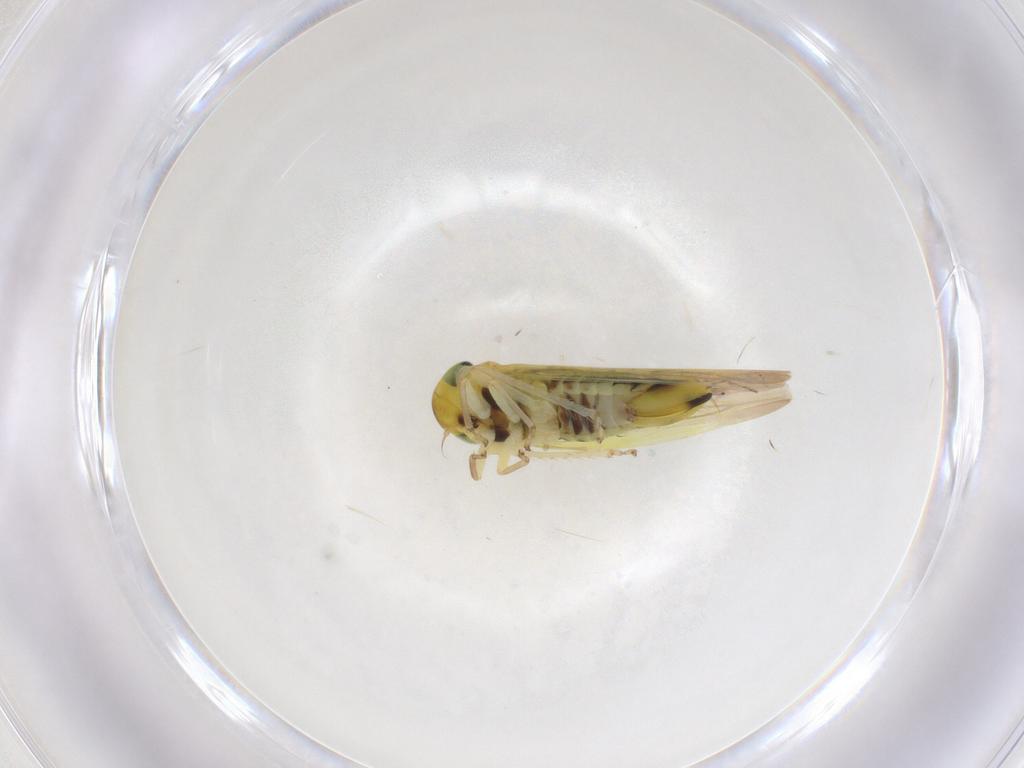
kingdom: Animalia
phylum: Arthropoda
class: Insecta
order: Hemiptera
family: Cicadellidae
